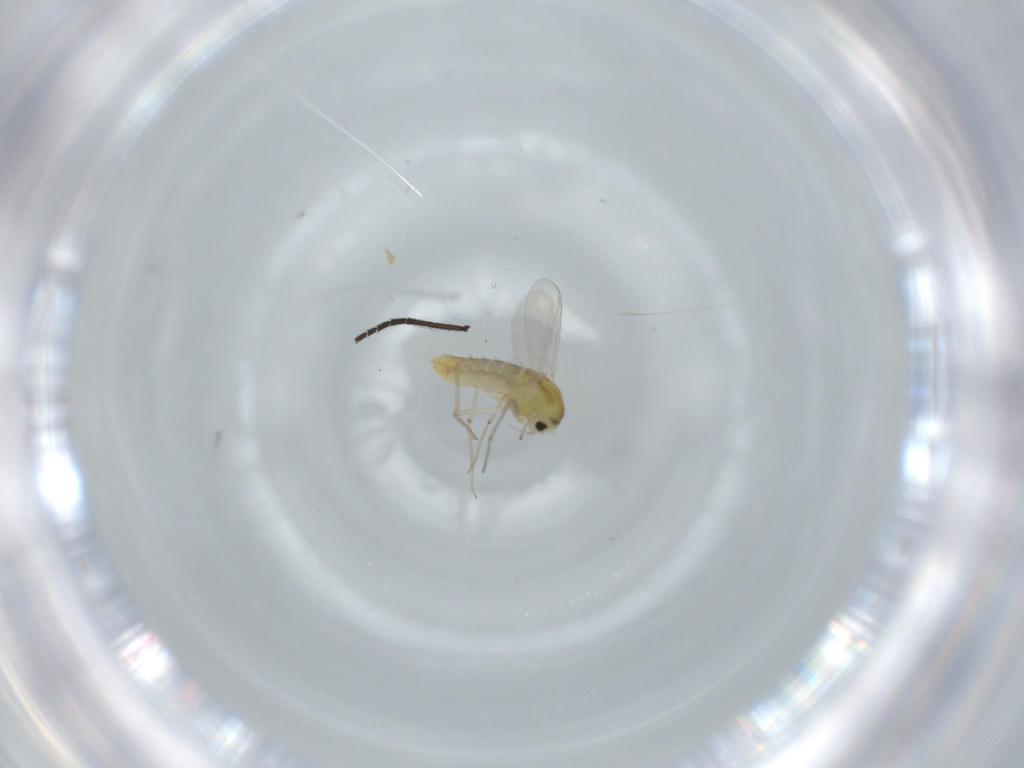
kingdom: Animalia
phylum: Arthropoda
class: Insecta
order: Diptera
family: Chironomidae
